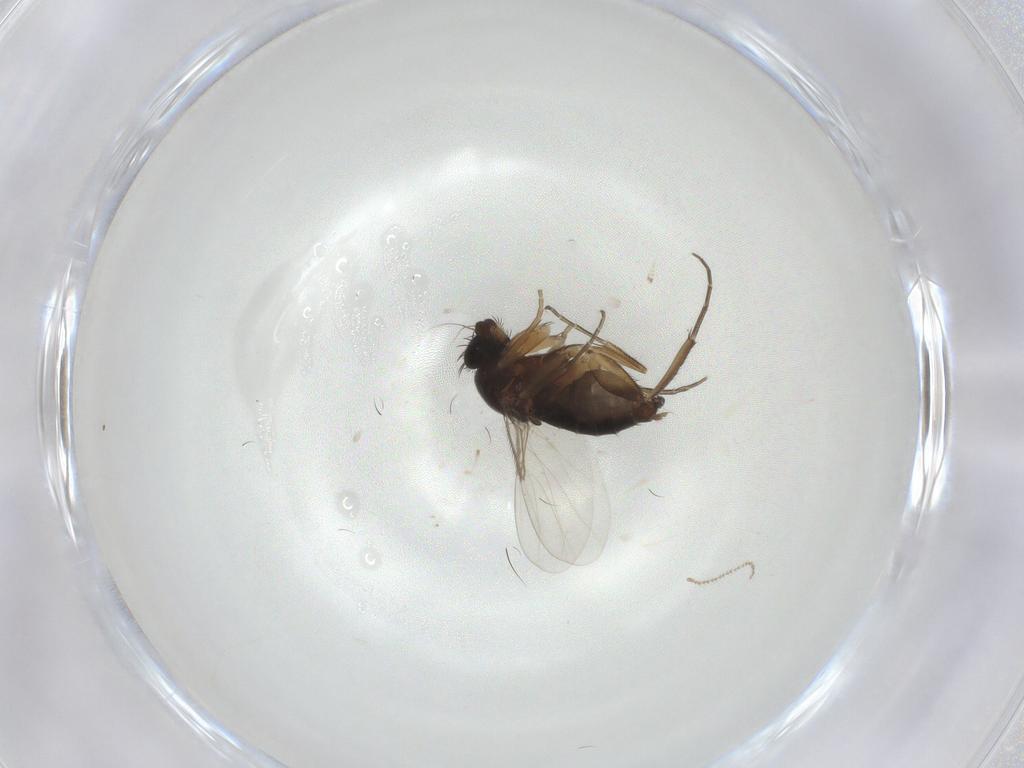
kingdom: Animalia
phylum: Arthropoda
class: Insecta
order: Diptera
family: Phoridae
